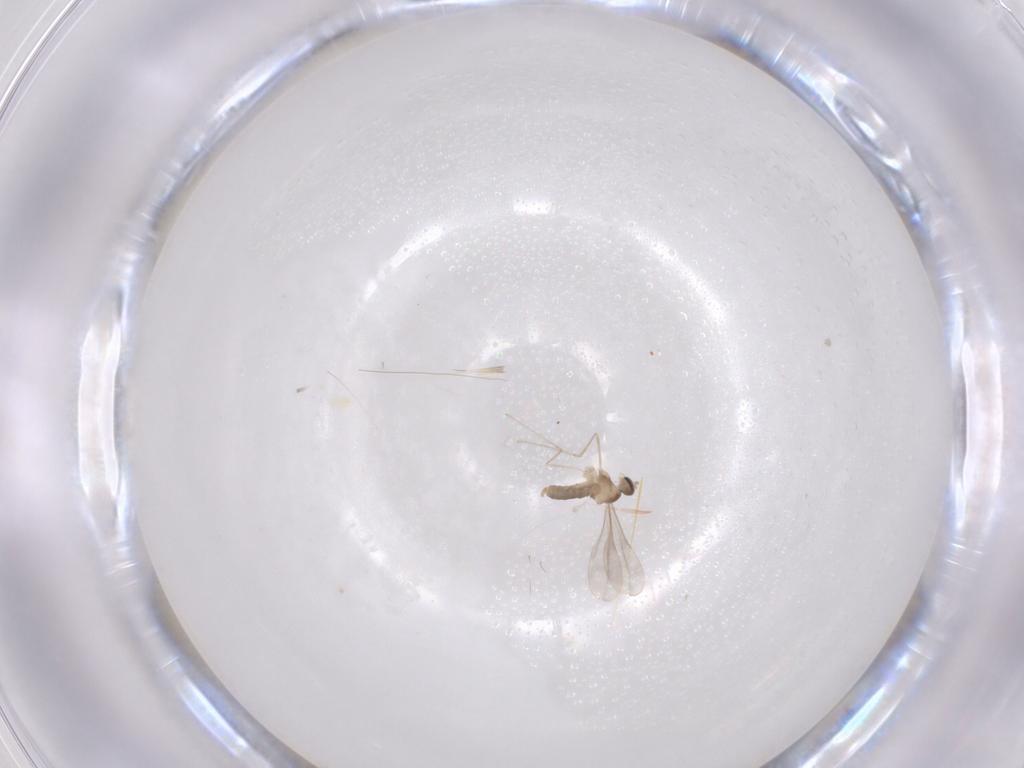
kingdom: Animalia
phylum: Arthropoda
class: Insecta
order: Diptera
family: Cecidomyiidae
